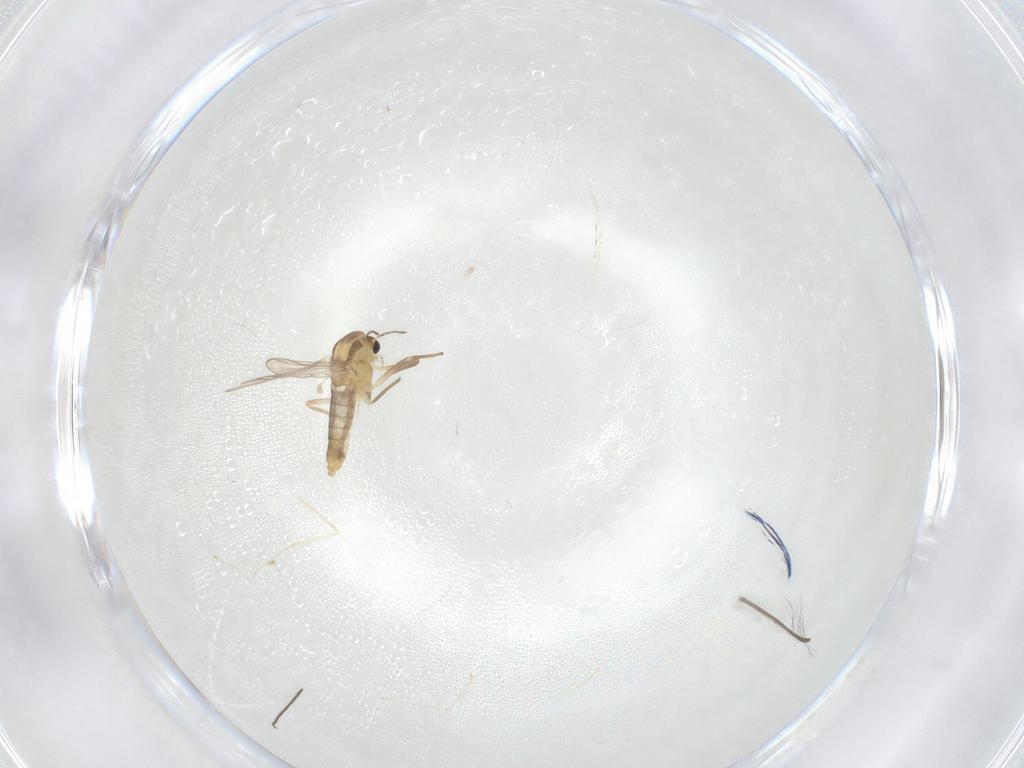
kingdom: Animalia
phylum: Arthropoda
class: Insecta
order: Diptera
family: Chironomidae
